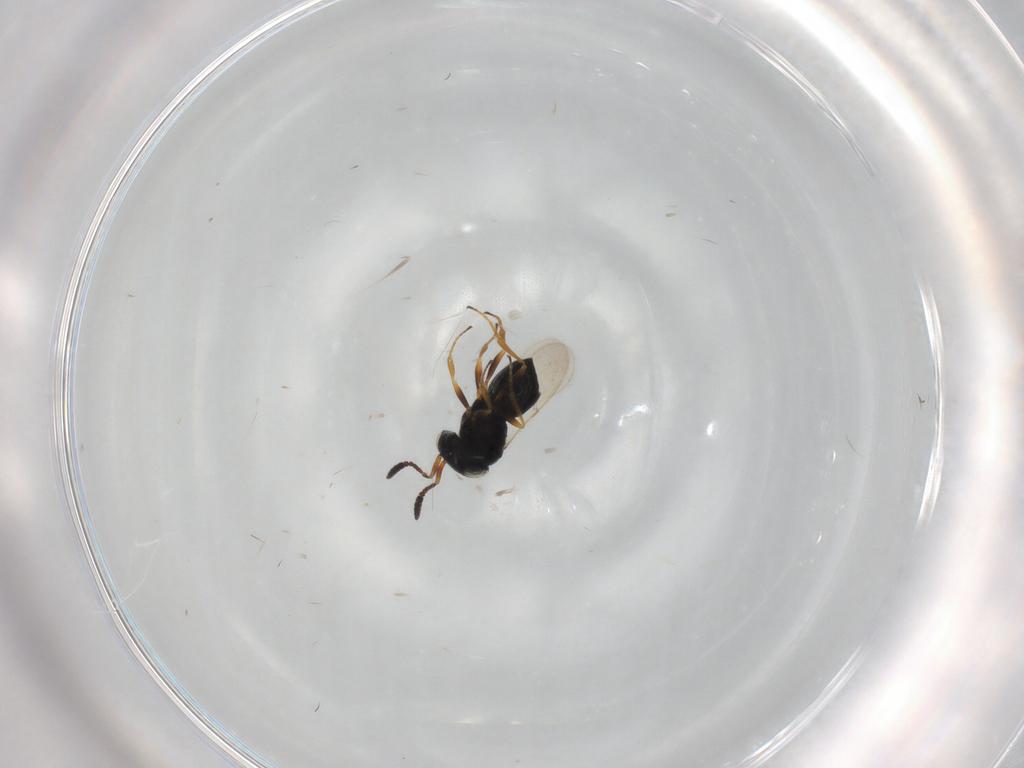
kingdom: Animalia
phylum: Arthropoda
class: Insecta
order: Hymenoptera
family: Scelionidae
